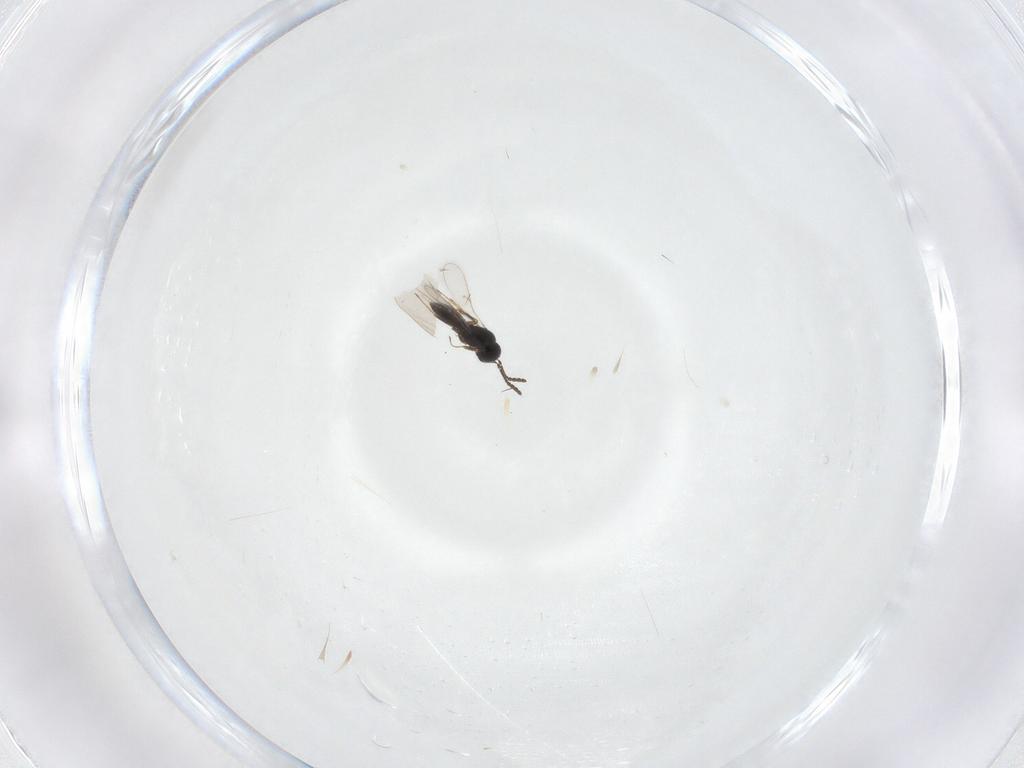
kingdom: Animalia
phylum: Arthropoda
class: Insecta
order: Hymenoptera
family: Scelionidae
